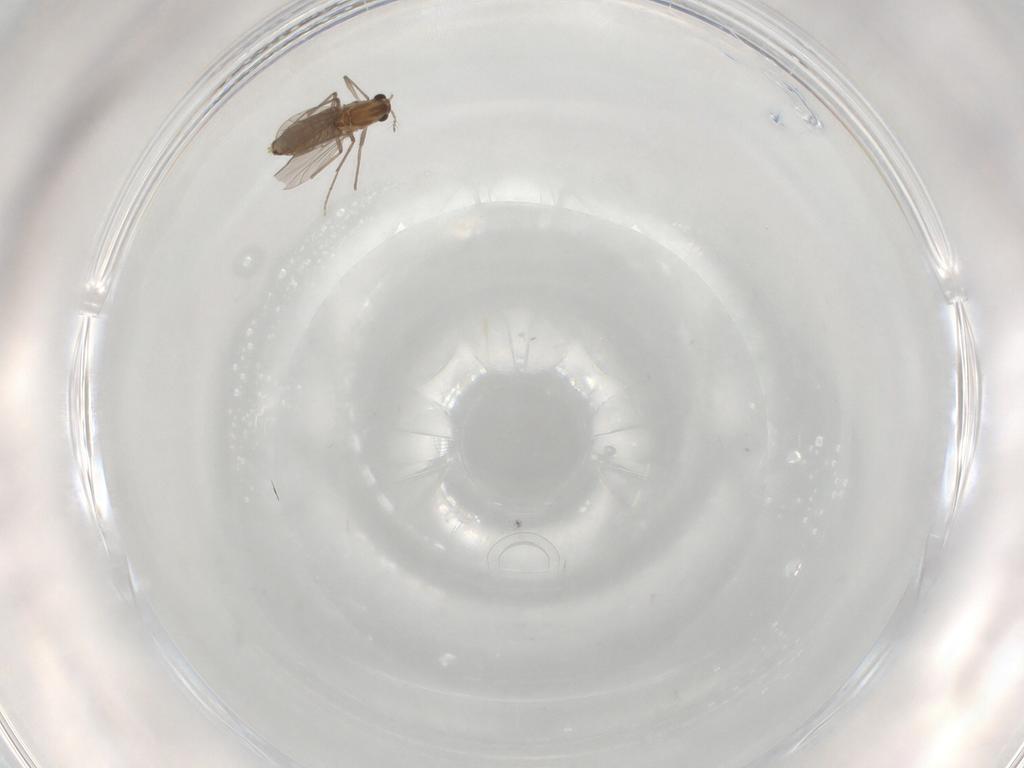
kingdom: Animalia
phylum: Arthropoda
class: Insecta
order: Diptera
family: Chironomidae
